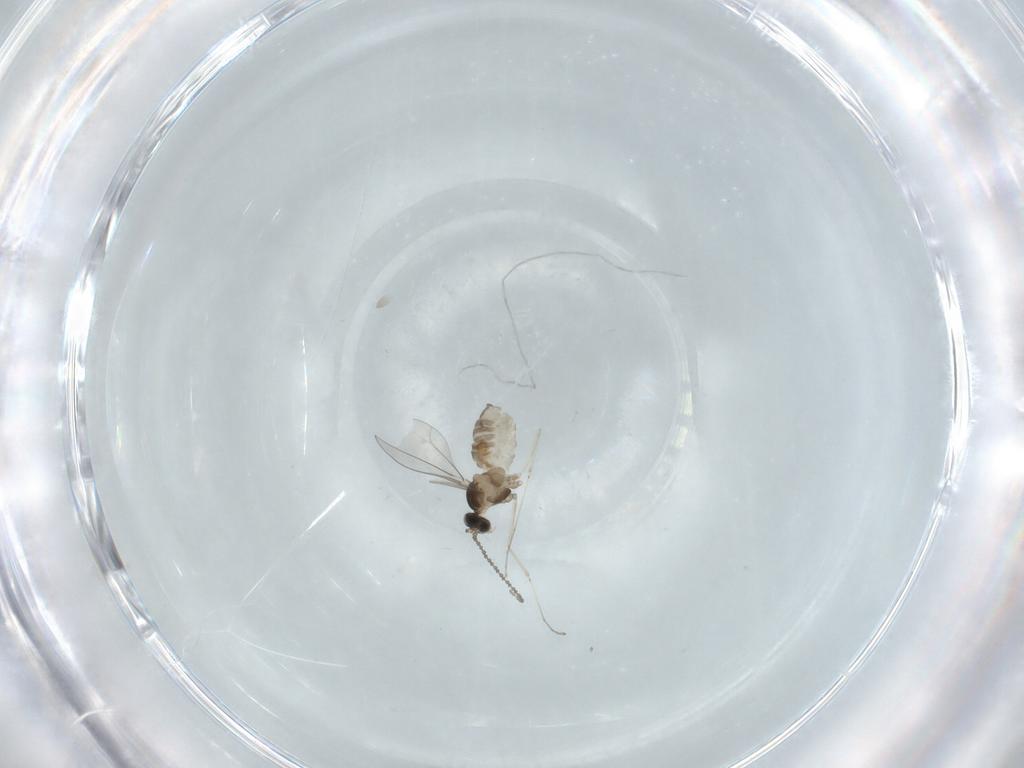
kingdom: Animalia
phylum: Arthropoda
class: Insecta
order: Diptera
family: Cecidomyiidae
